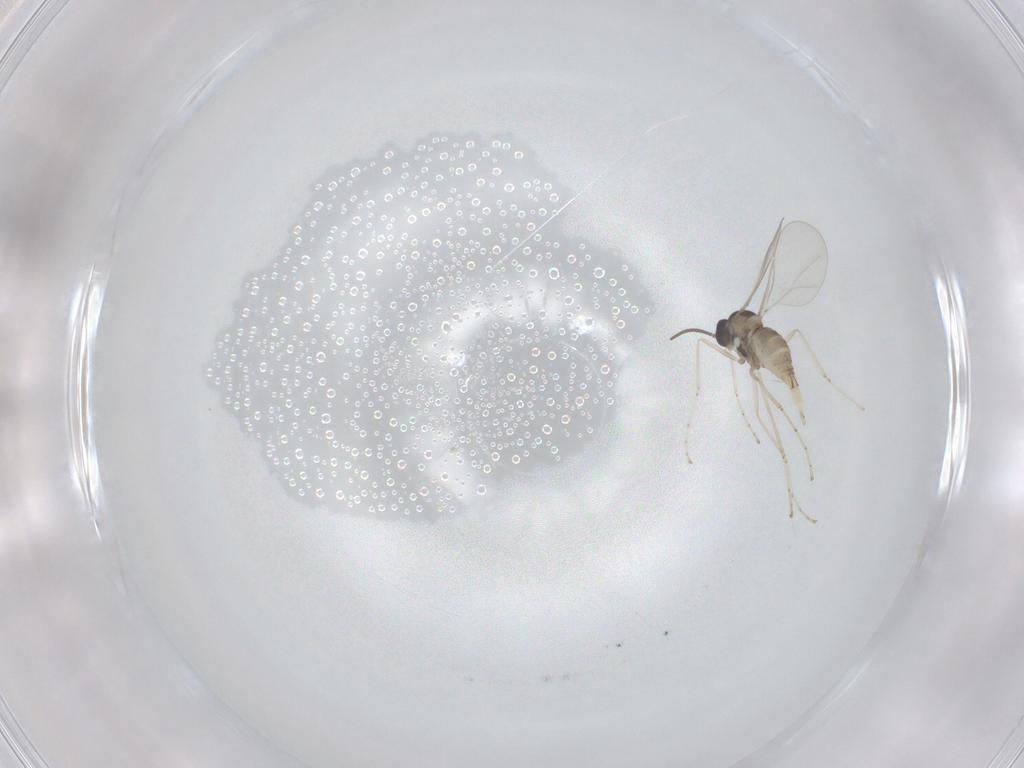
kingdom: Animalia
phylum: Arthropoda
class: Insecta
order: Diptera
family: Cecidomyiidae
